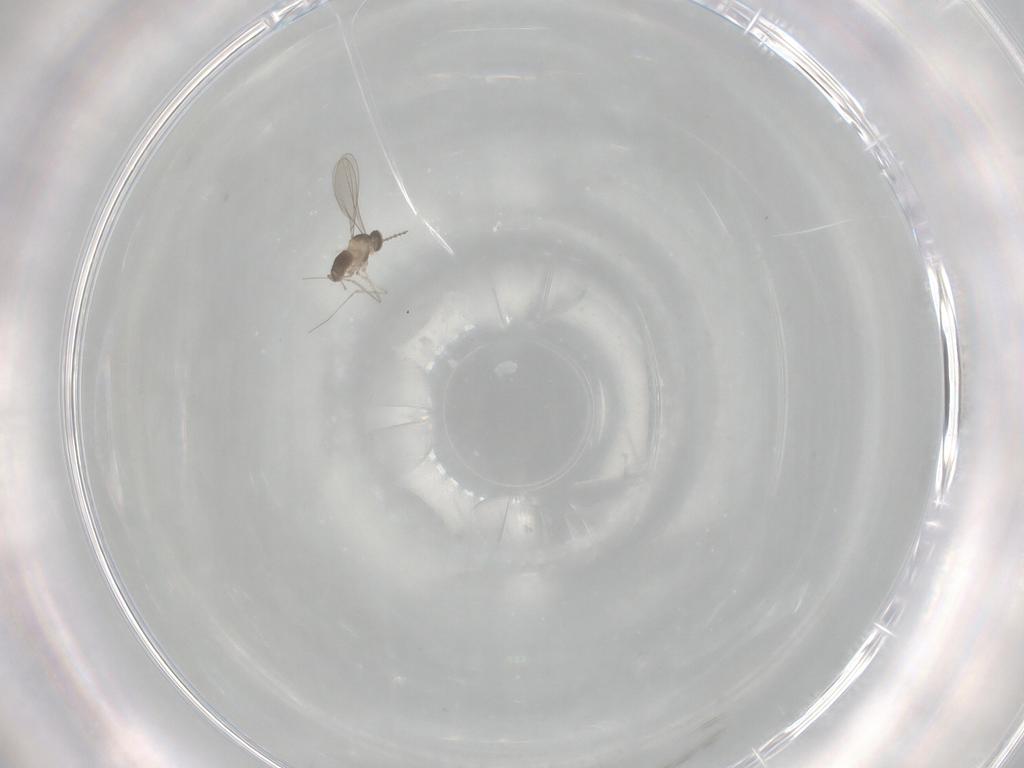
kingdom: Animalia
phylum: Arthropoda
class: Insecta
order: Diptera
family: Cecidomyiidae
